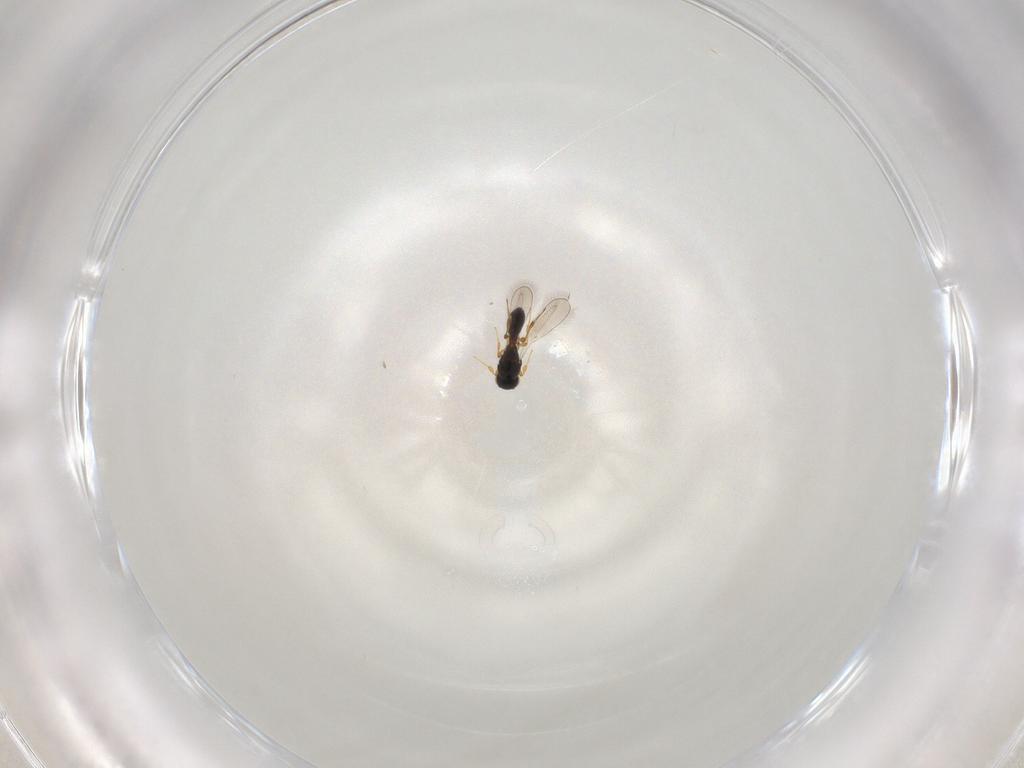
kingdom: Animalia
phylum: Arthropoda
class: Insecta
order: Hymenoptera
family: Platygastridae
